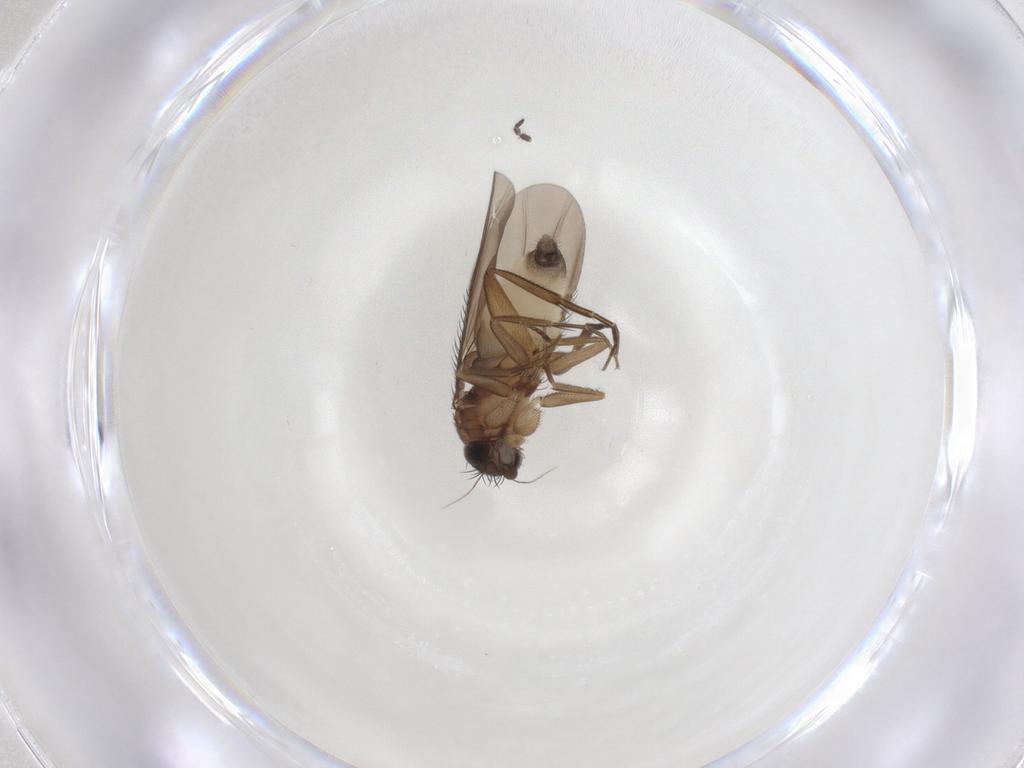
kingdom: Animalia
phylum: Arthropoda
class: Insecta
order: Diptera
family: Phoridae
